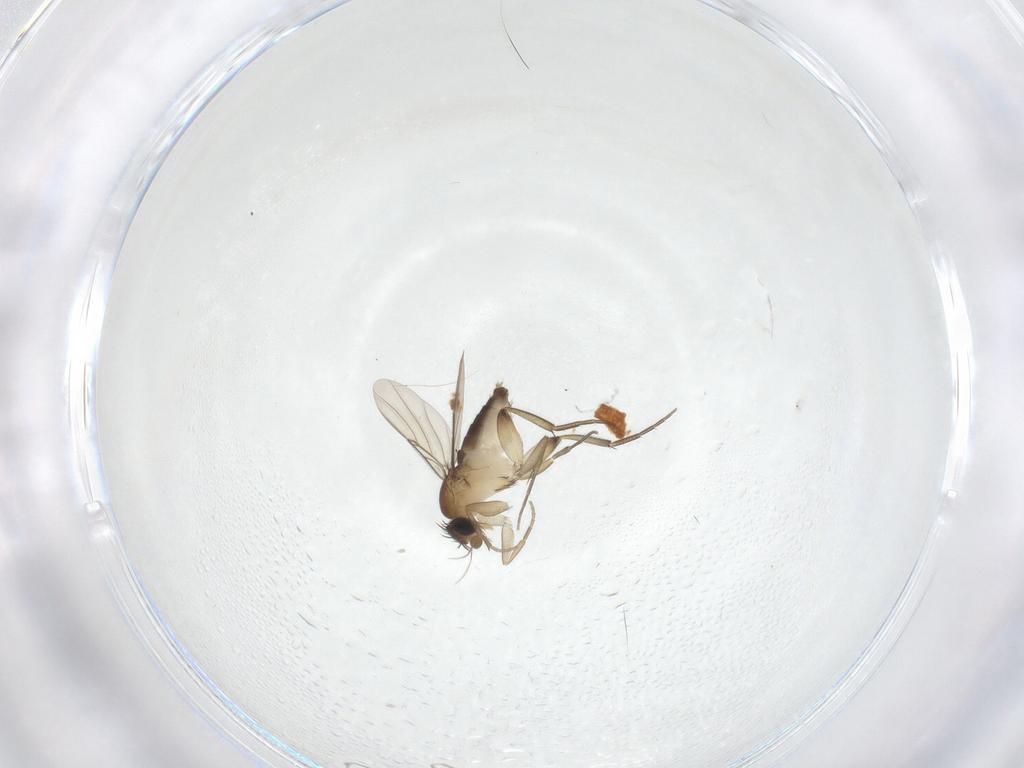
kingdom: Animalia
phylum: Arthropoda
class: Insecta
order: Diptera
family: Phoridae
